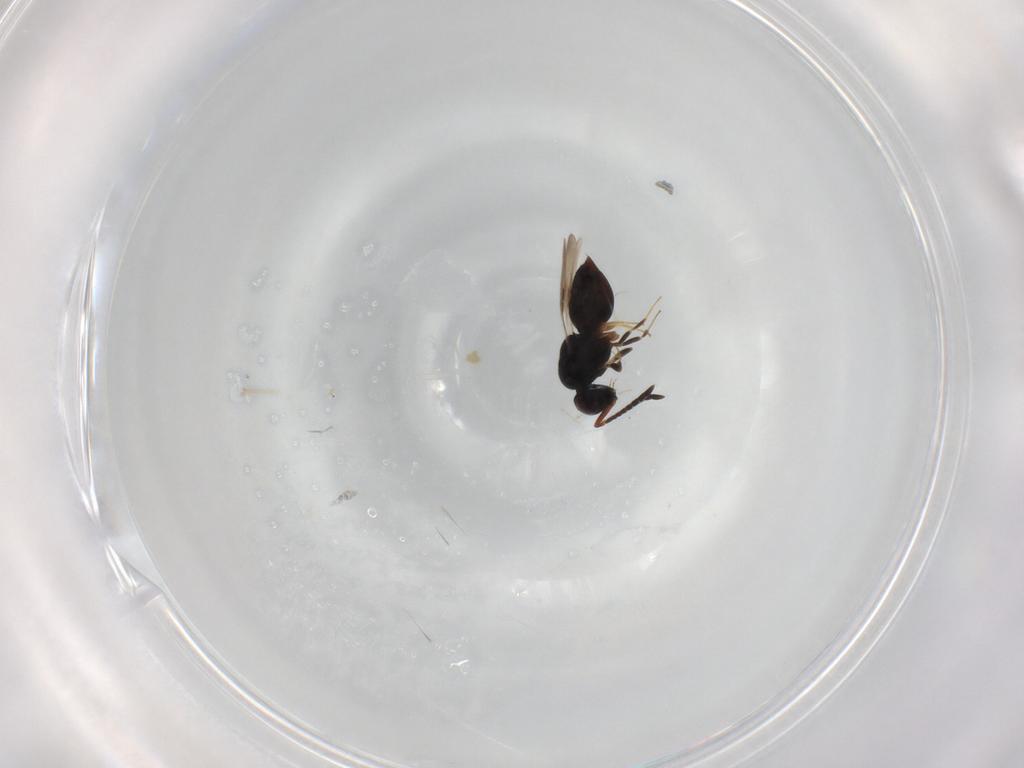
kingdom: Animalia
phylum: Arthropoda
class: Insecta
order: Hymenoptera
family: Braconidae
